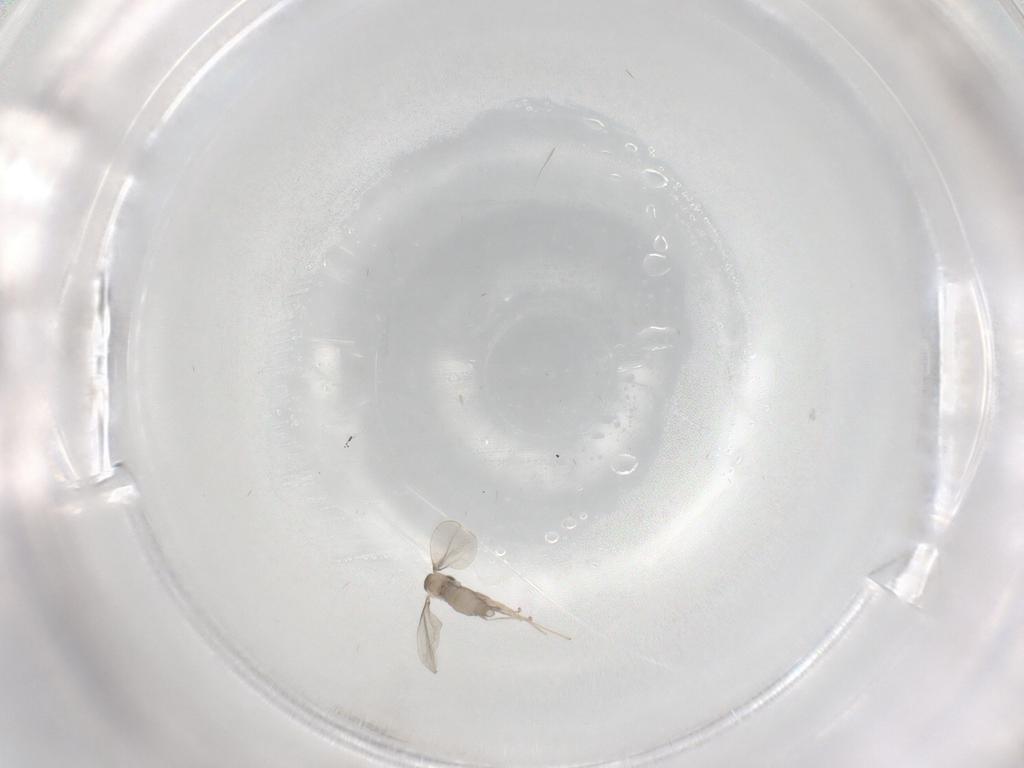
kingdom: Animalia
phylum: Arthropoda
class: Insecta
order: Diptera
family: Cecidomyiidae
